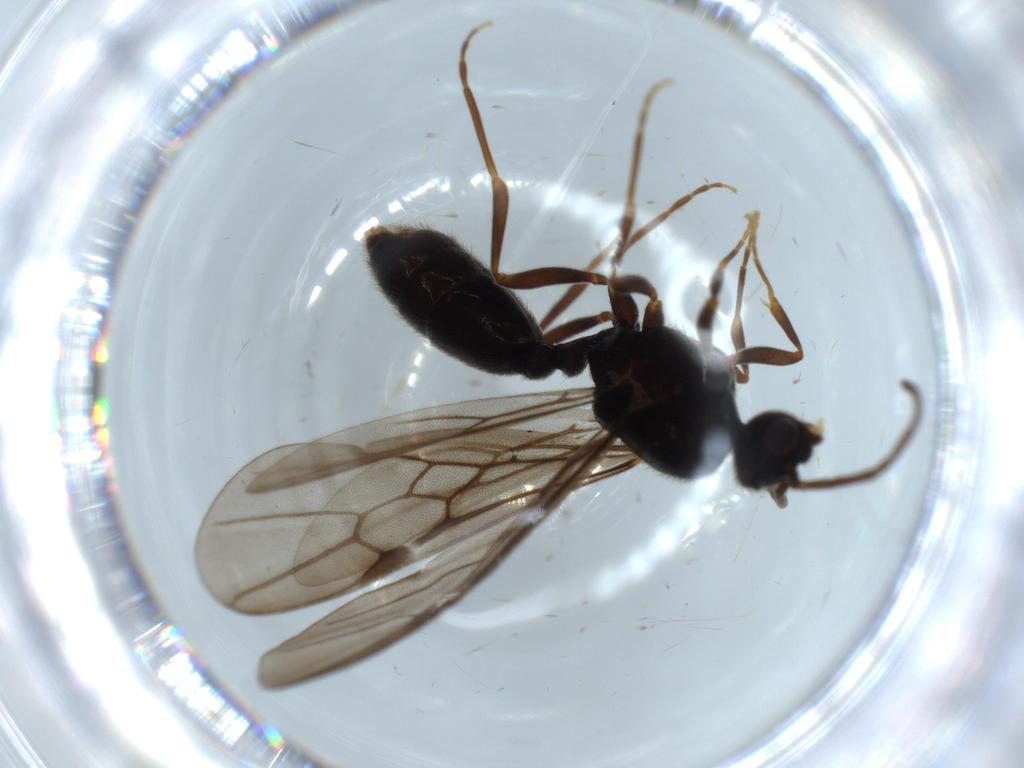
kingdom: Animalia
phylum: Arthropoda
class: Insecta
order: Hymenoptera
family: Formicidae
